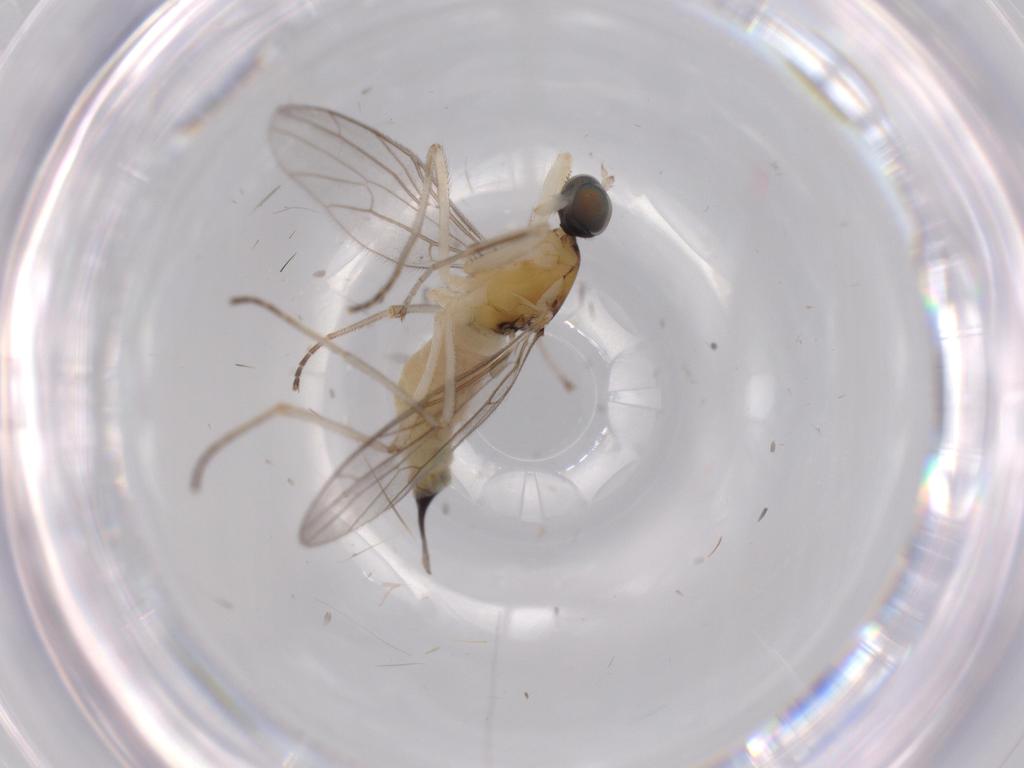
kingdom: Animalia
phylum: Arthropoda
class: Insecta
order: Diptera
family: Empididae
